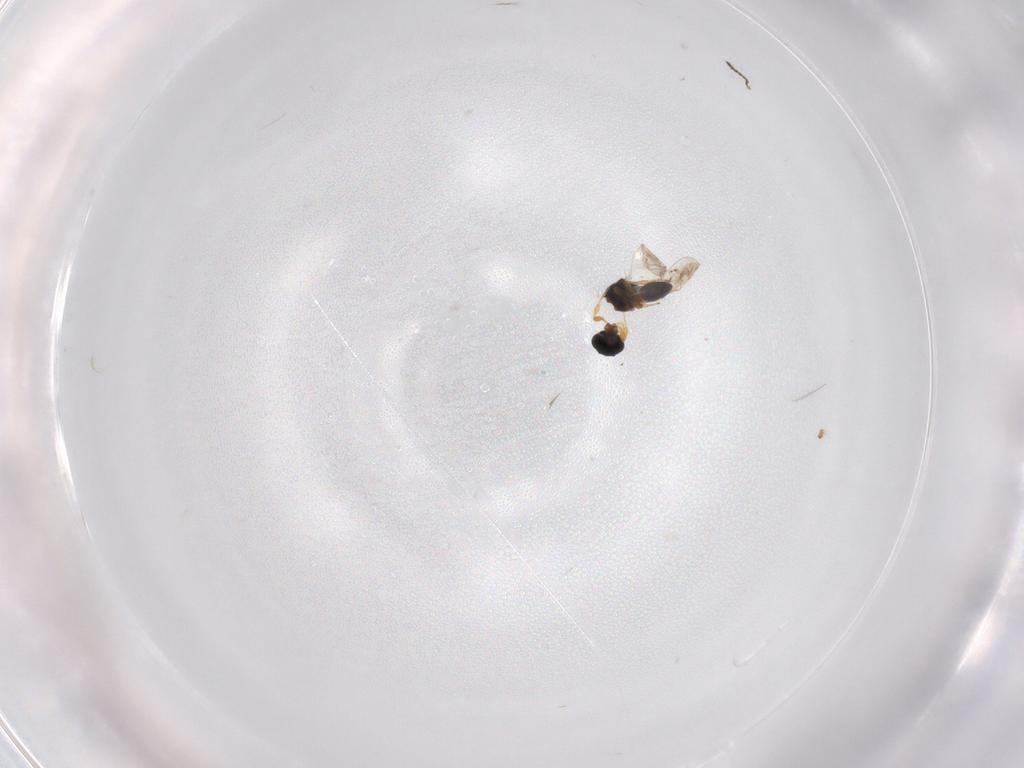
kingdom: Animalia
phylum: Arthropoda
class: Insecta
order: Hymenoptera
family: Platygastridae
